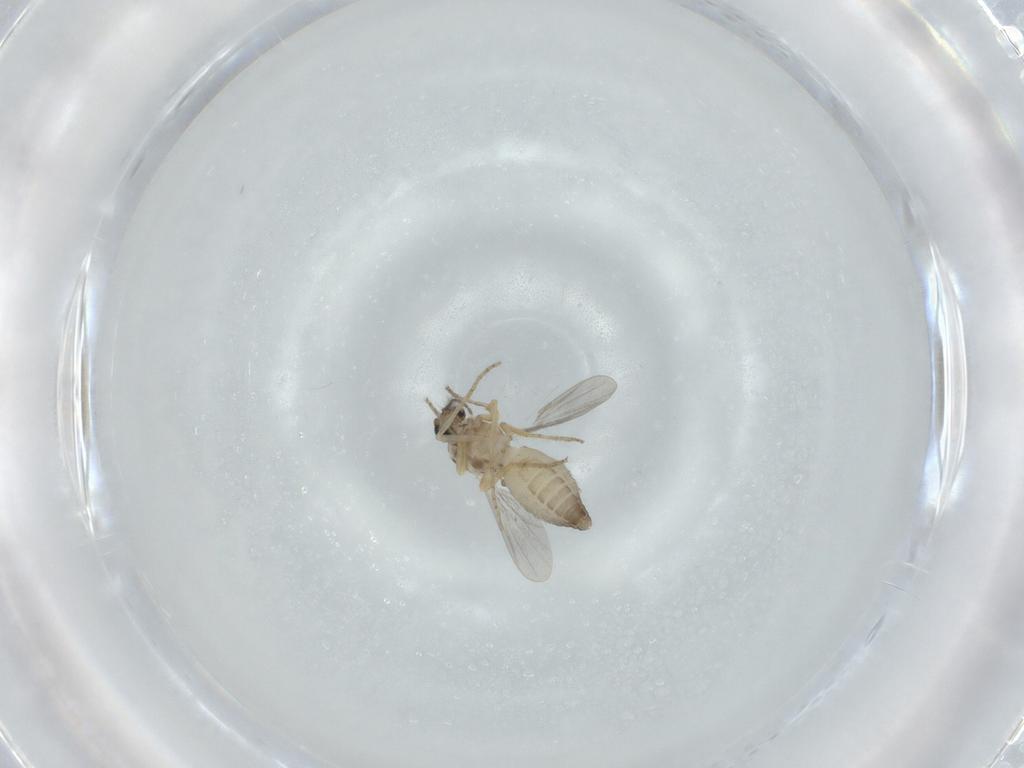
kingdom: Animalia
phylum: Arthropoda
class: Insecta
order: Diptera
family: Ceratopogonidae
